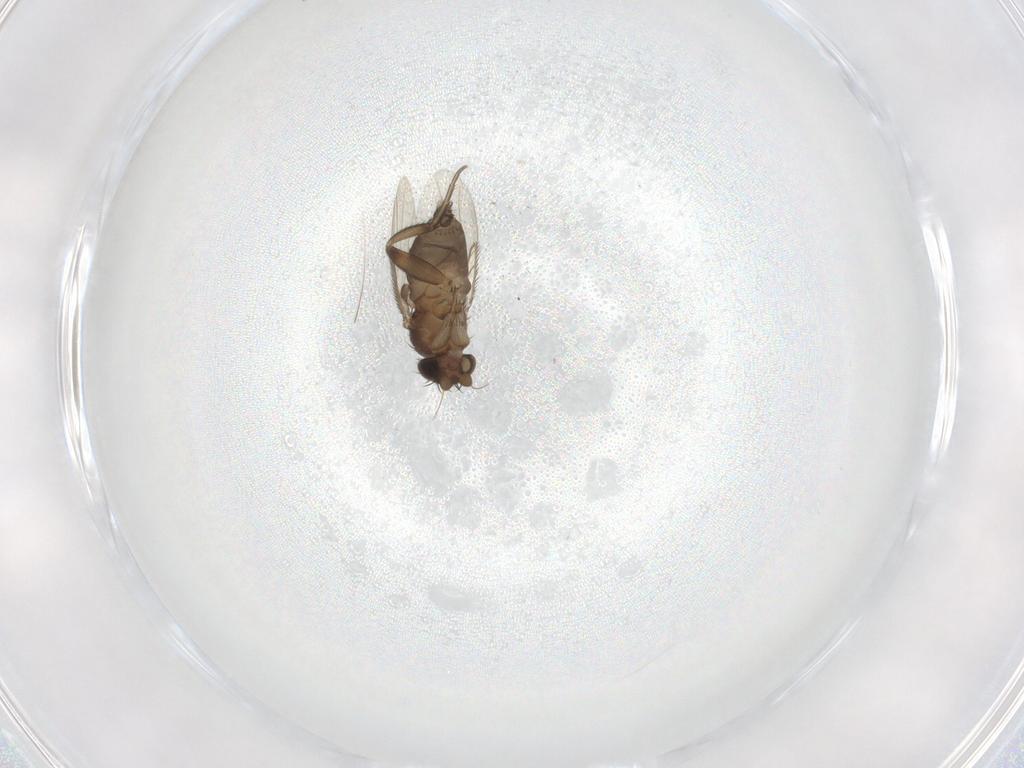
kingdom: Animalia
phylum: Arthropoda
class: Insecta
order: Diptera
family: Phoridae
